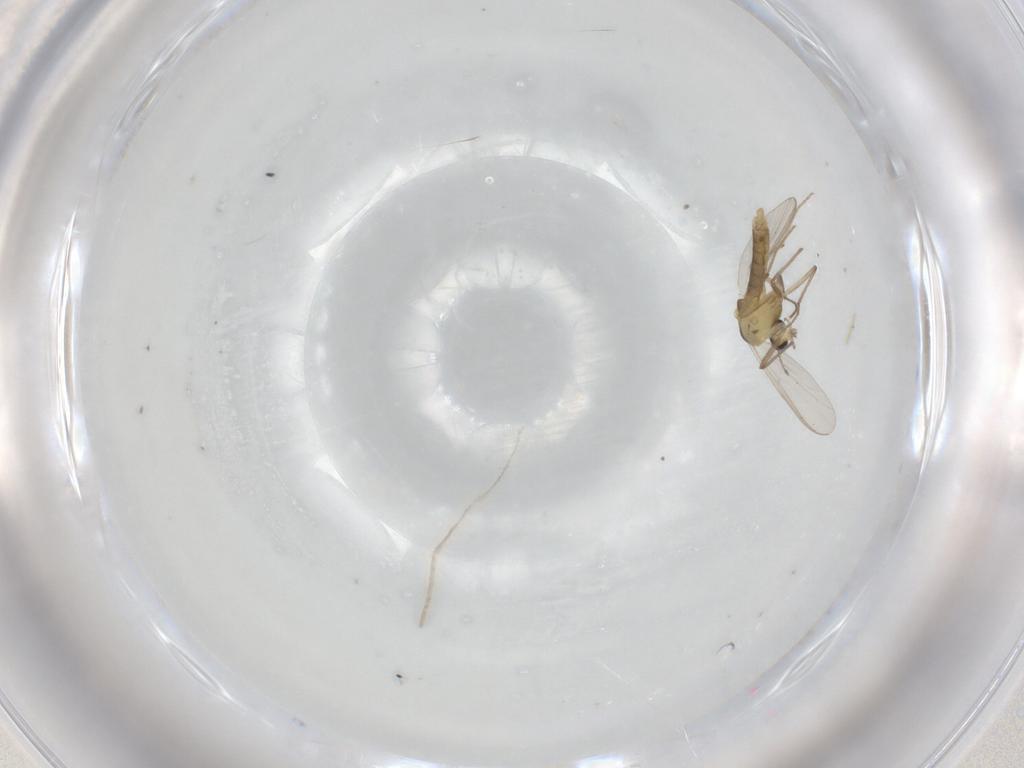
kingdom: Animalia
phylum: Arthropoda
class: Insecta
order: Diptera
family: Chironomidae
